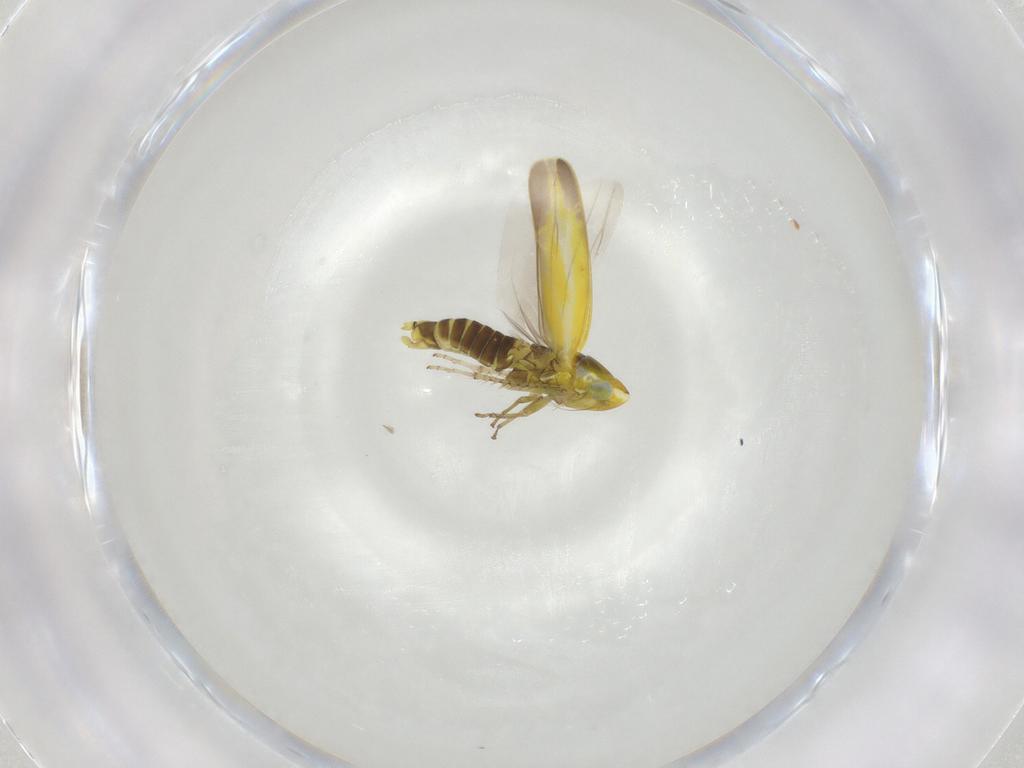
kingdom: Animalia
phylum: Arthropoda
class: Insecta
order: Hemiptera
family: Cicadellidae
